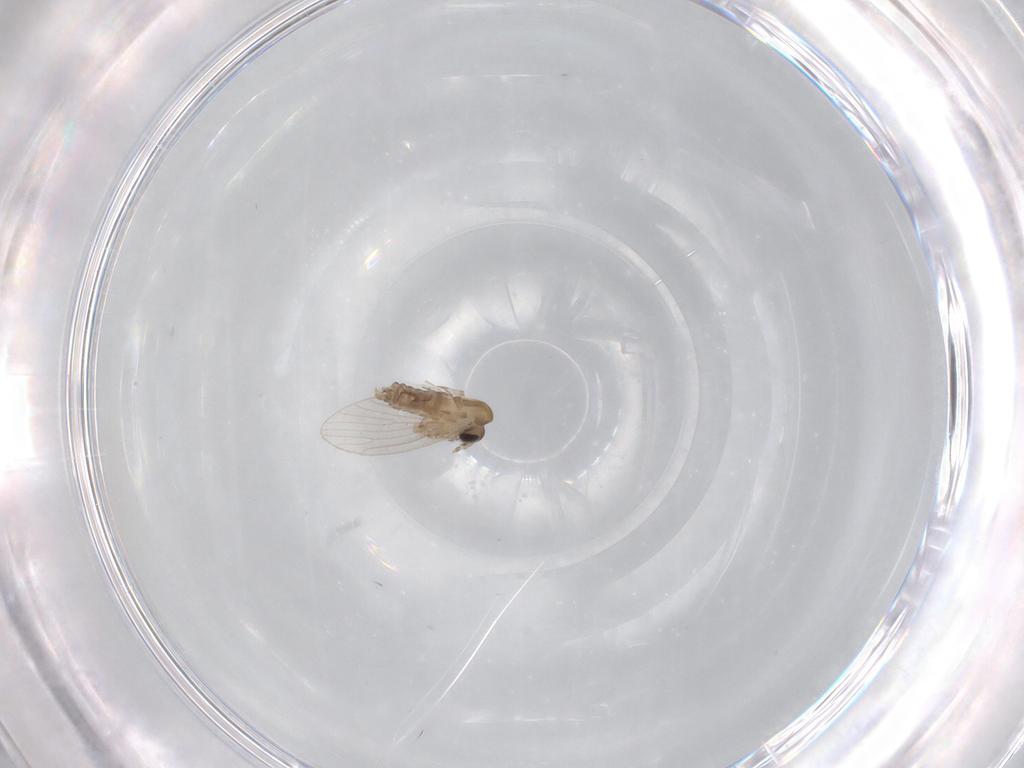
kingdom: Animalia
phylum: Arthropoda
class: Insecta
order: Diptera
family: Psychodidae
